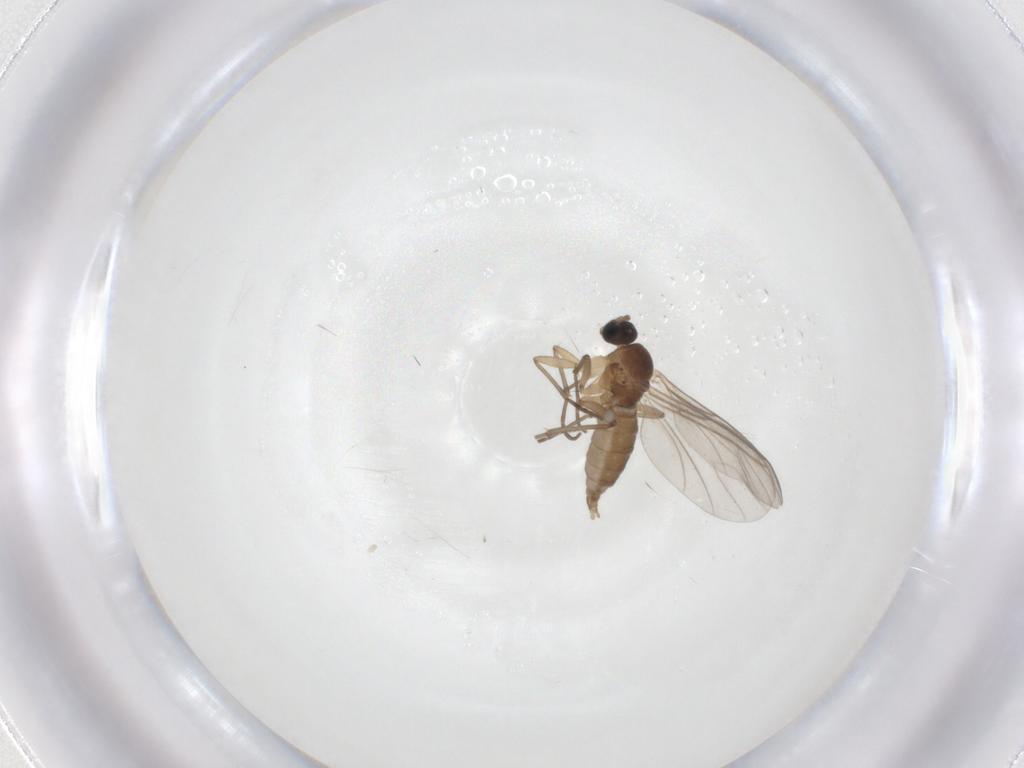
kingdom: Animalia
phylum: Arthropoda
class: Insecta
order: Diptera
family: Sciaridae
